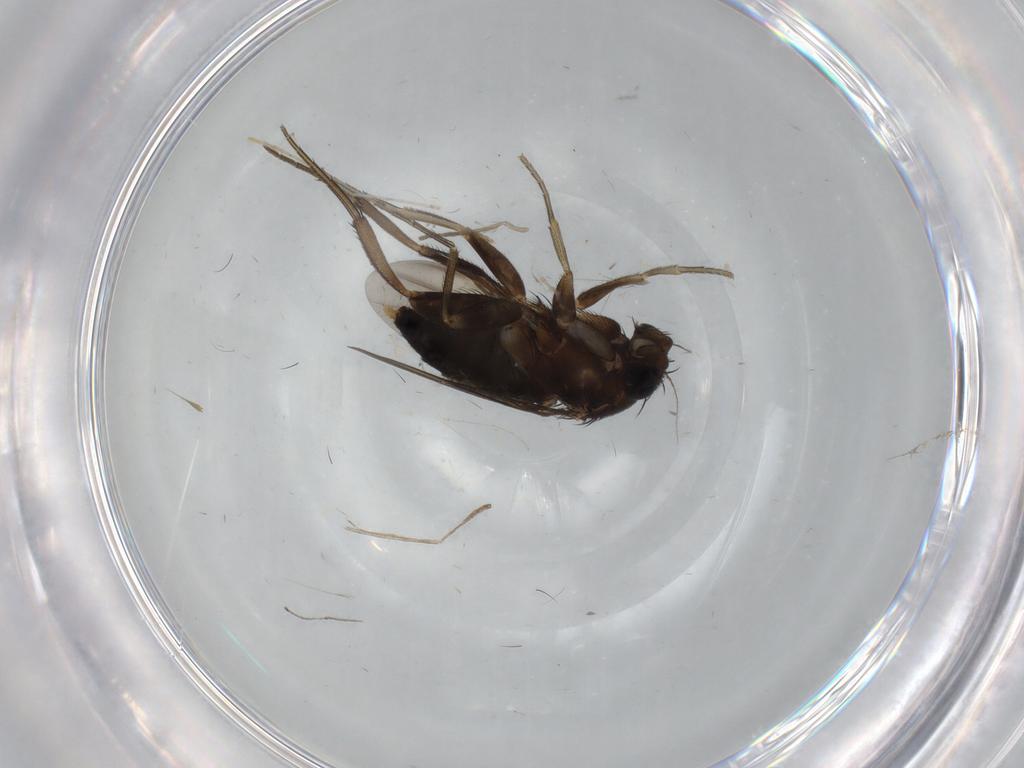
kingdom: Animalia
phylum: Arthropoda
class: Insecta
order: Diptera
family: Phoridae
